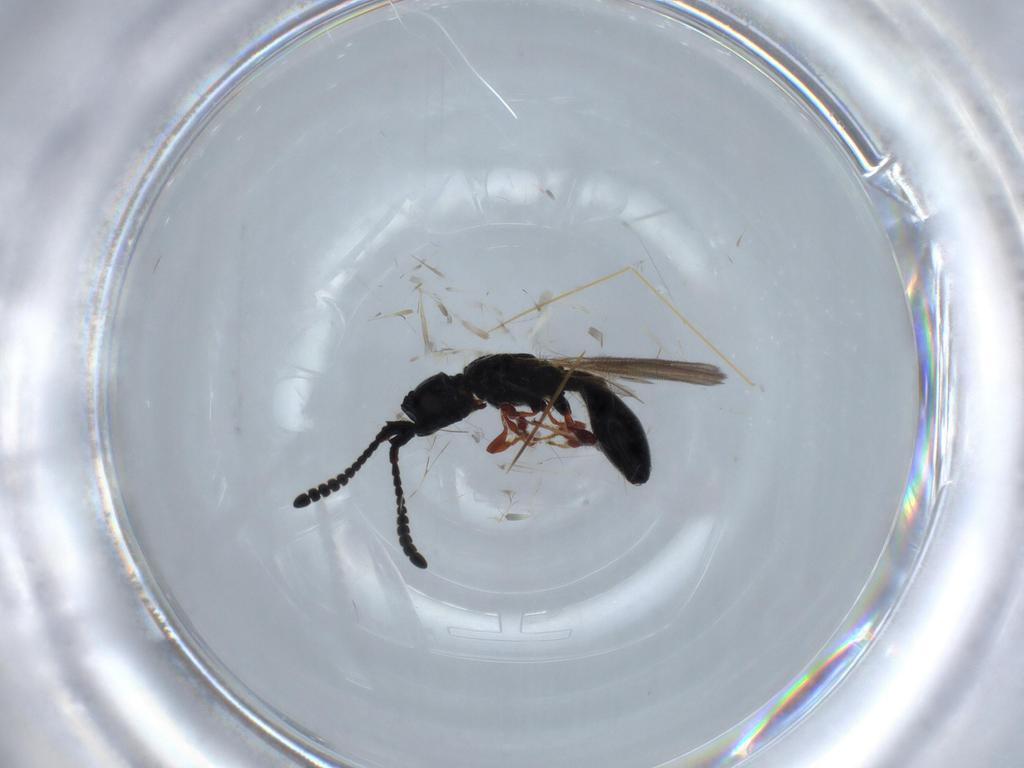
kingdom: Animalia
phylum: Arthropoda
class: Insecta
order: Hymenoptera
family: Diapriidae
